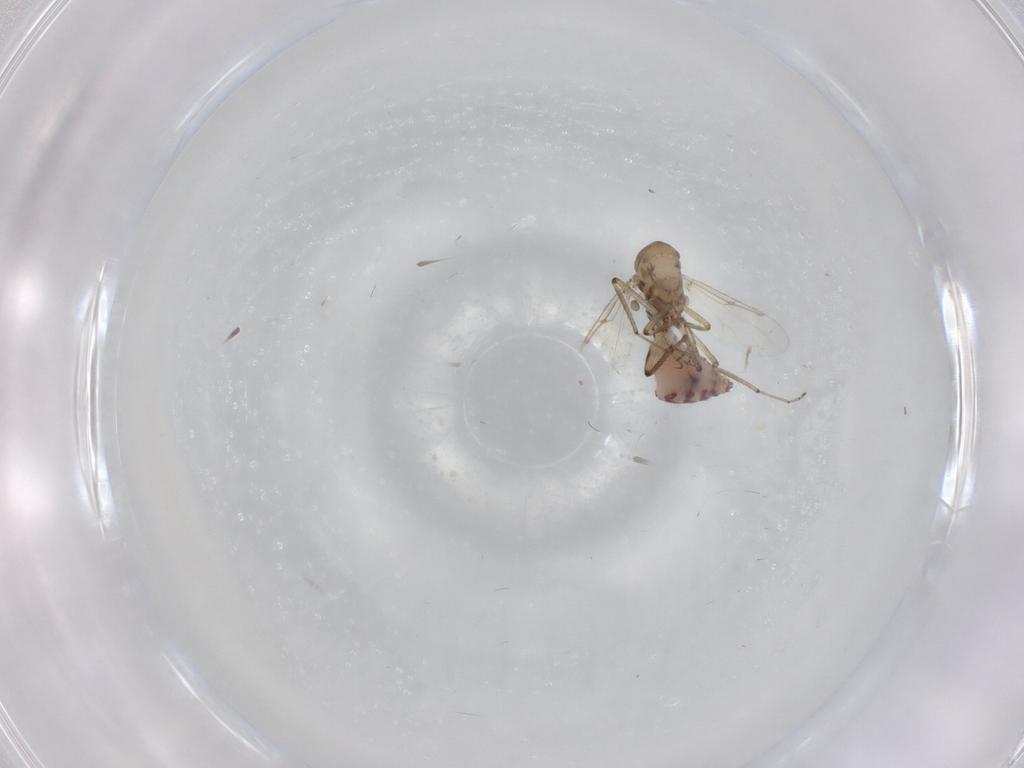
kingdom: Animalia
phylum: Arthropoda
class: Insecta
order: Diptera
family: Ceratopogonidae
